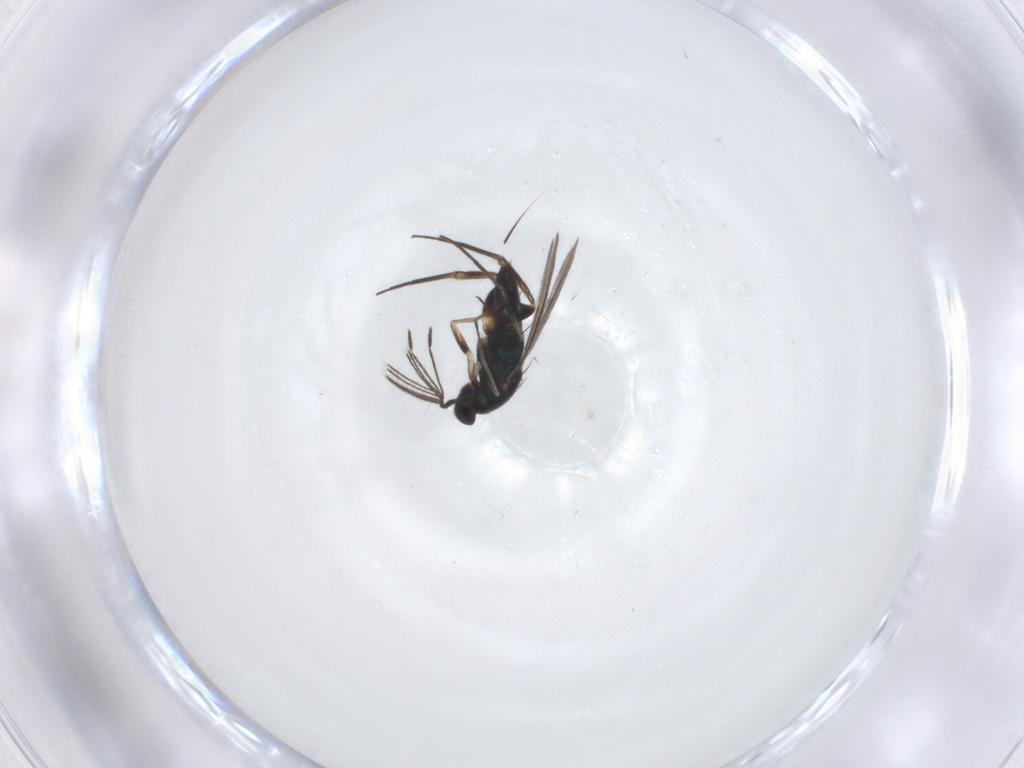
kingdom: Animalia
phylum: Arthropoda
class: Insecta
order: Hymenoptera
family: Eulophidae
